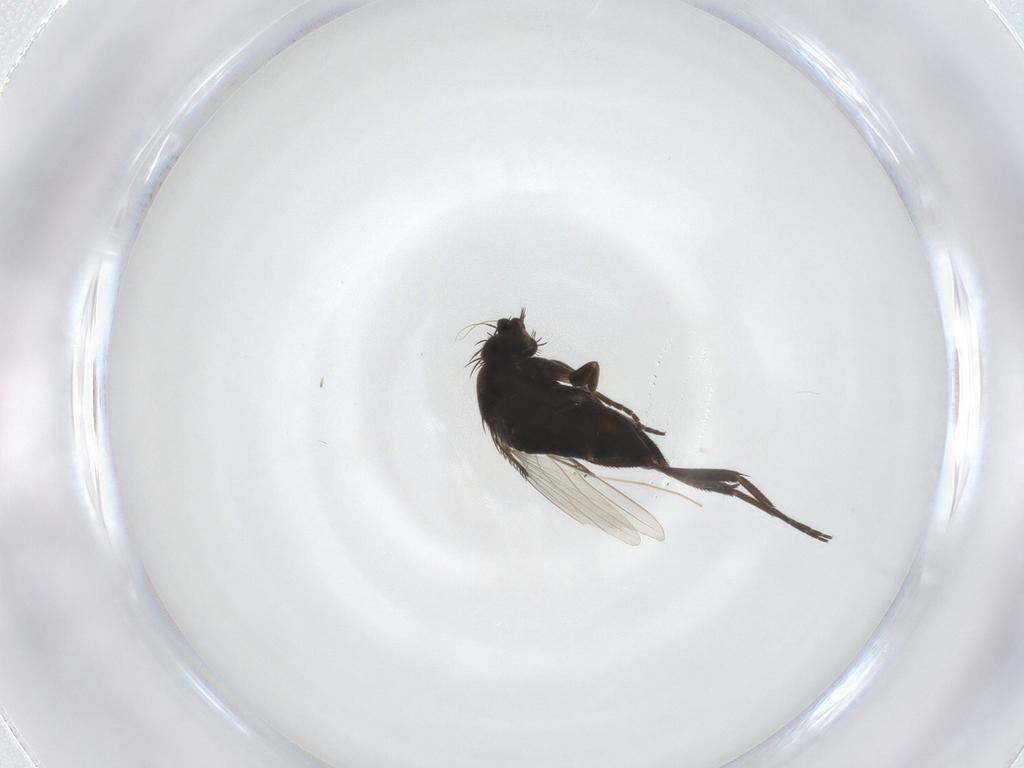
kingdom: Animalia
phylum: Arthropoda
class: Insecta
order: Diptera
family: Phoridae
